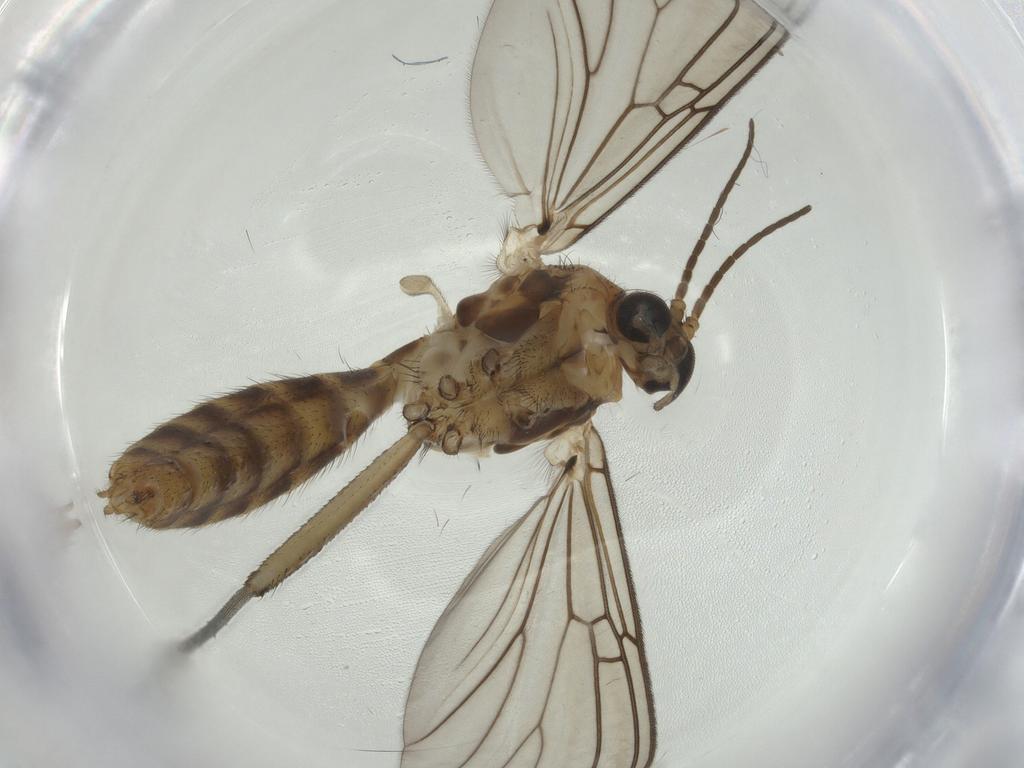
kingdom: Animalia
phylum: Arthropoda
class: Insecta
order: Diptera
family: Ceratopogonidae
